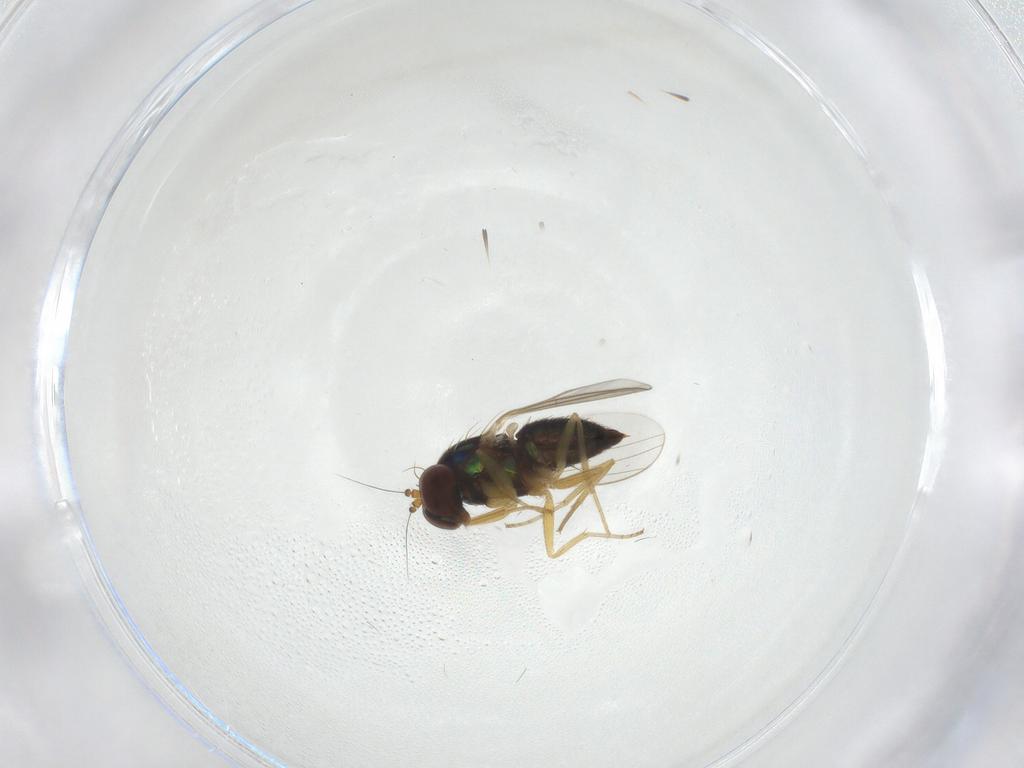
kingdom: Animalia
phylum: Arthropoda
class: Insecta
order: Diptera
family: Dolichopodidae
